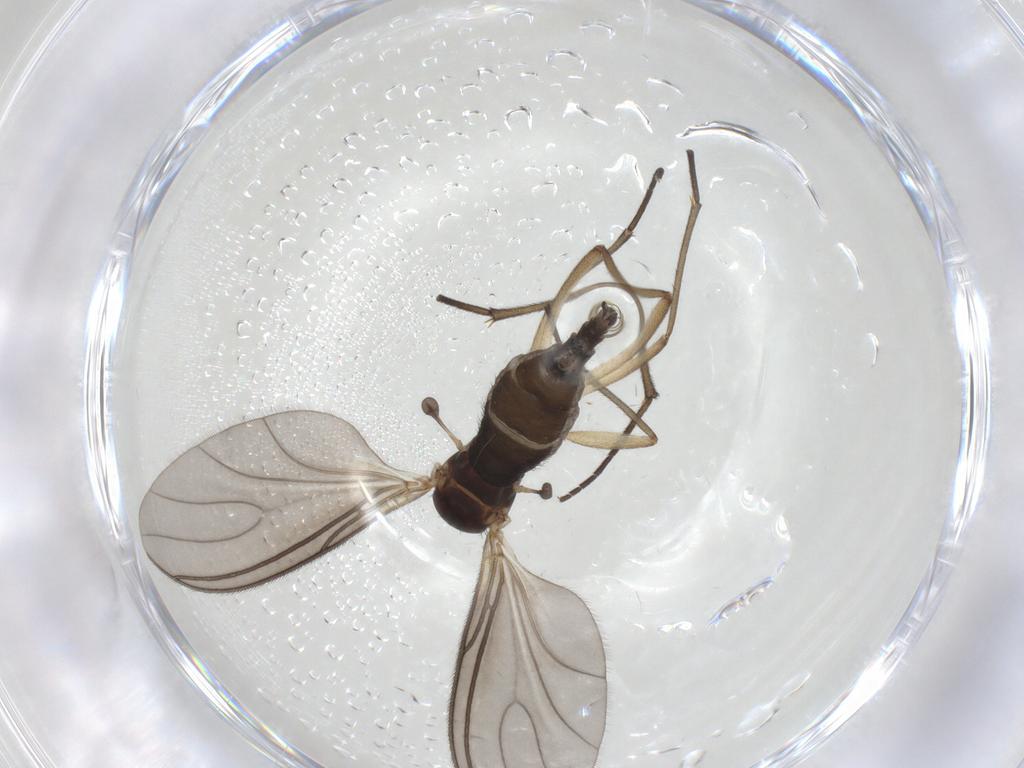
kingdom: Animalia
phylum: Arthropoda
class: Insecta
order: Diptera
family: Sciaridae
